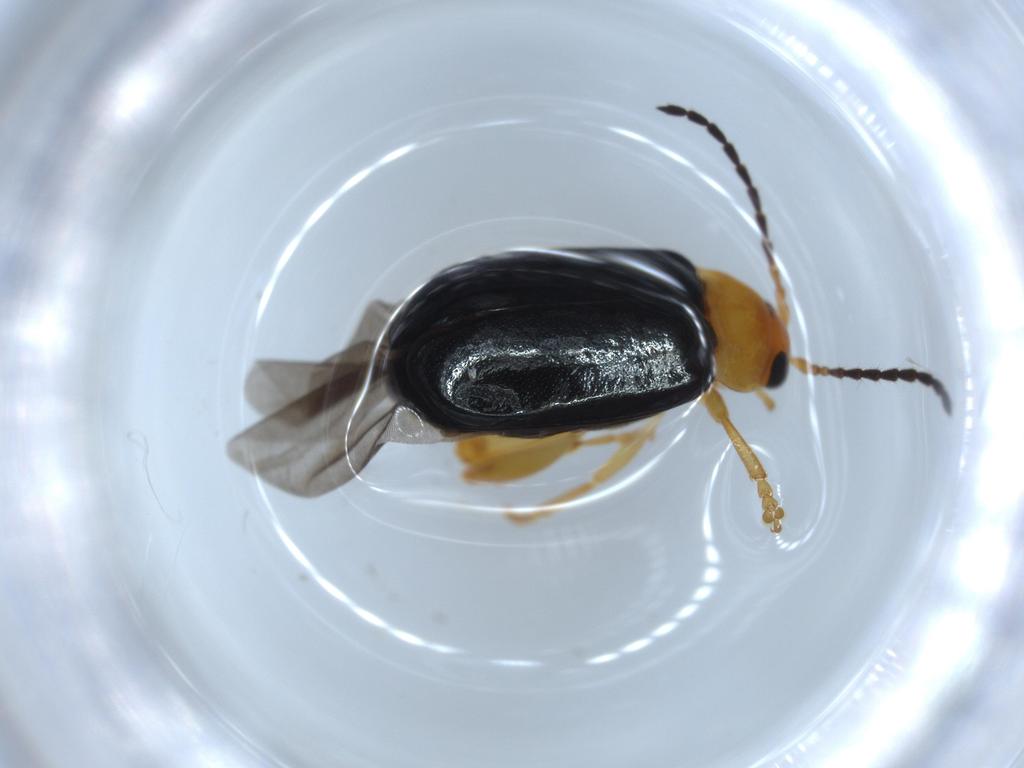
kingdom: Animalia
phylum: Arthropoda
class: Insecta
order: Coleoptera
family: Chrysomelidae
